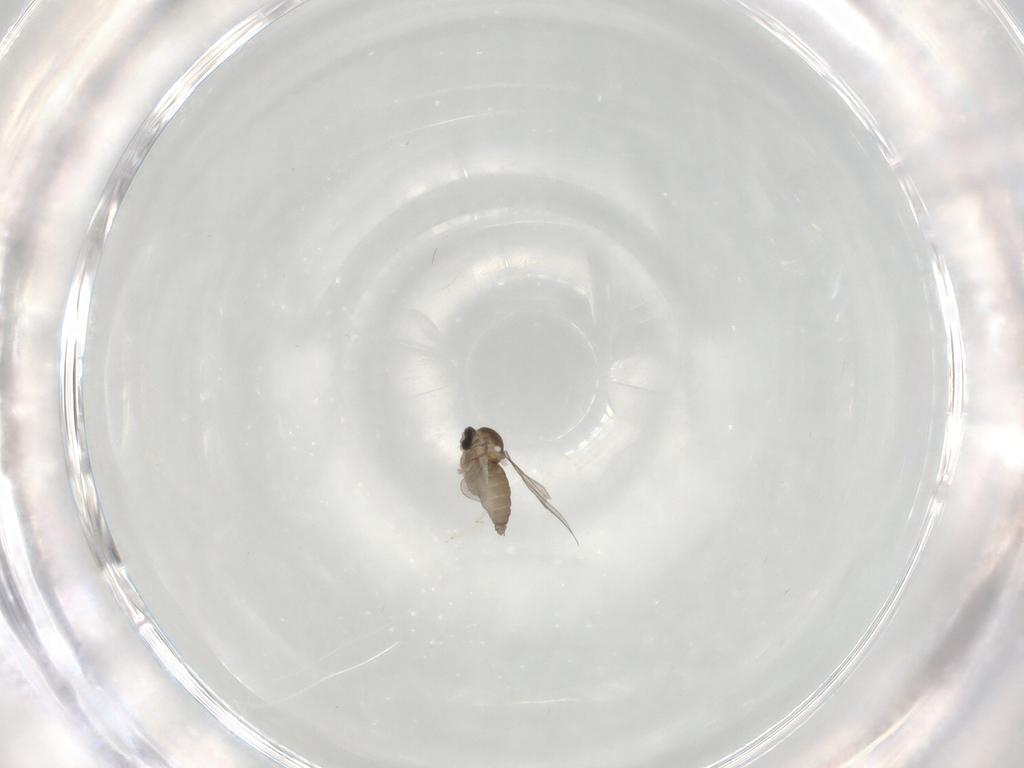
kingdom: Animalia
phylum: Arthropoda
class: Insecta
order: Diptera
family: Cecidomyiidae
